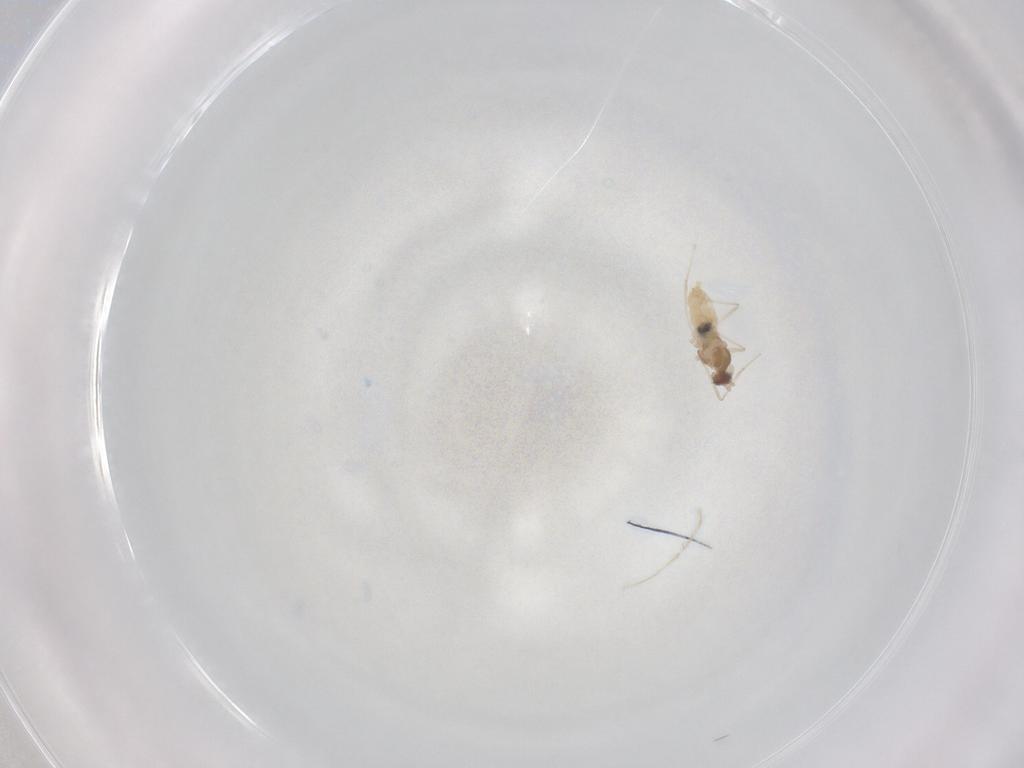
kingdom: Animalia
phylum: Arthropoda
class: Insecta
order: Diptera
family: Cecidomyiidae
